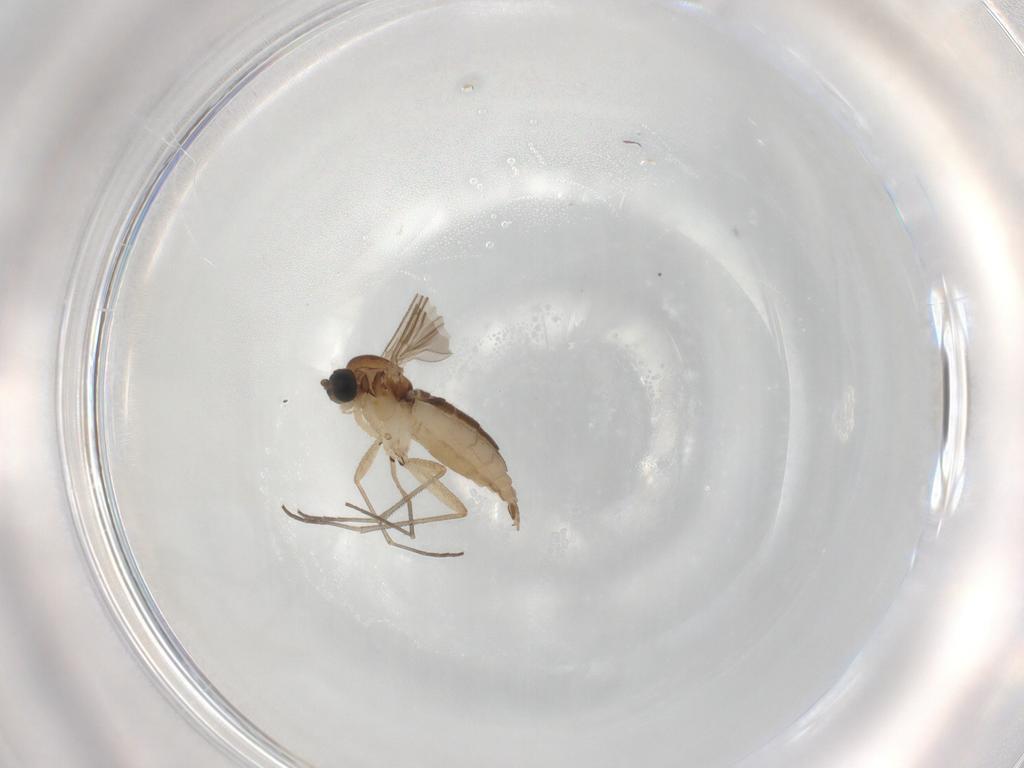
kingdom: Animalia
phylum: Arthropoda
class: Insecta
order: Diptera
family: Sciaridae
